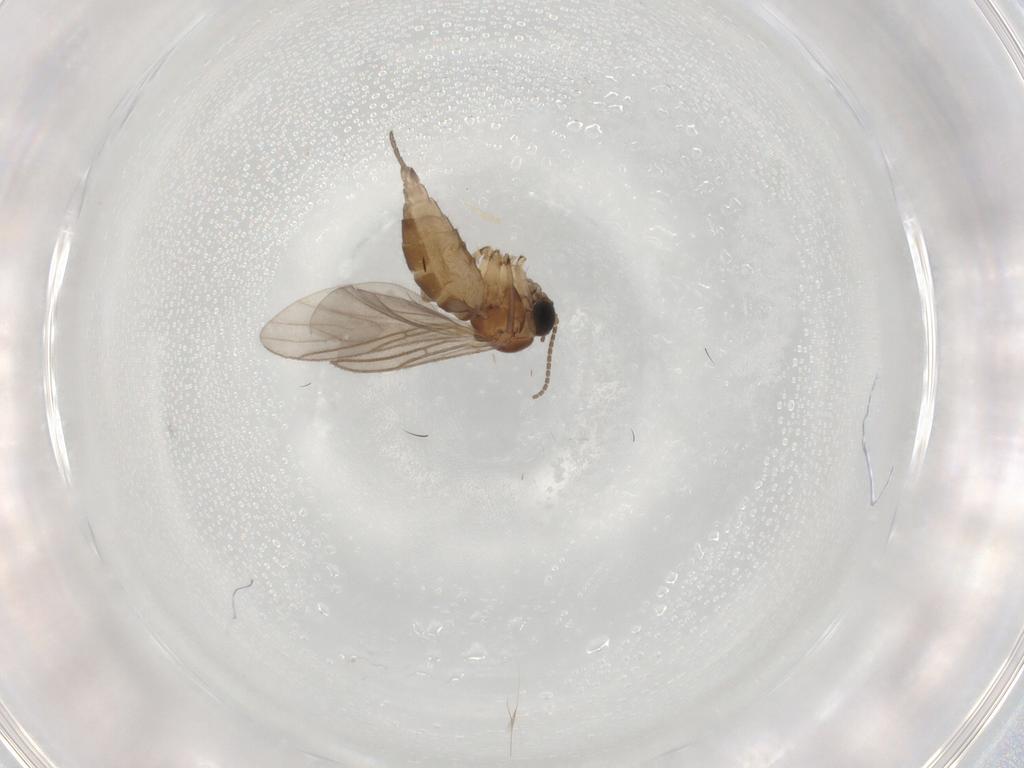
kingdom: Animalia
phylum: Arthropoda
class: Insecta
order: Diptera
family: Sciaridae
